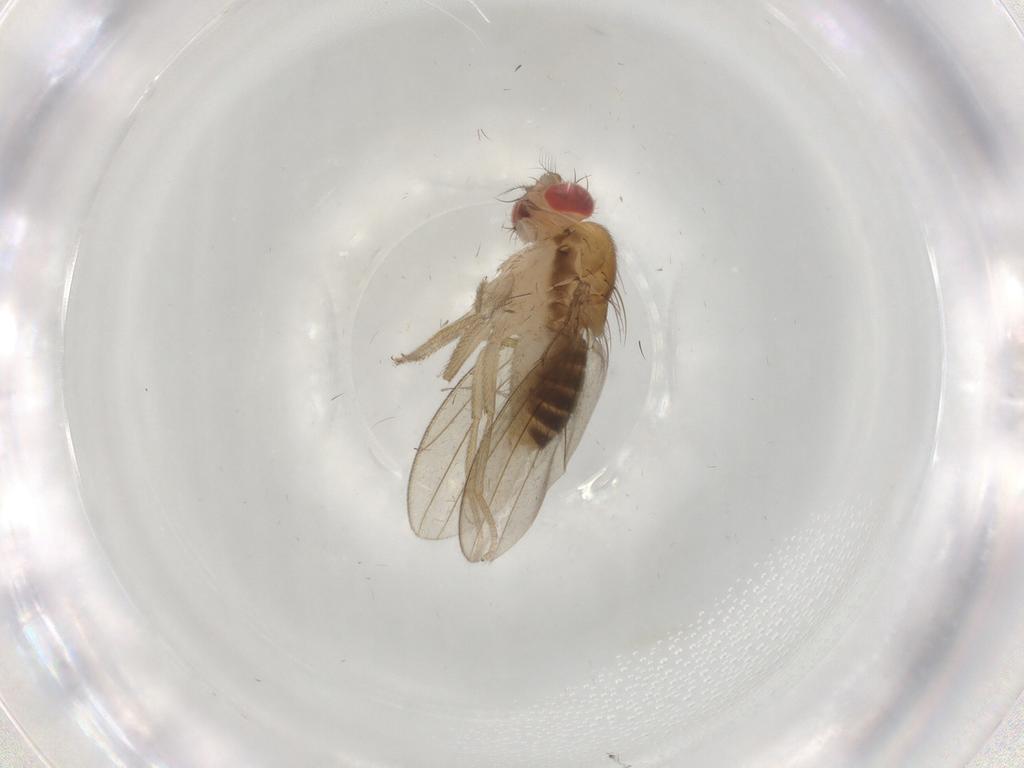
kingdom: Animalia
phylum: Arthropoda
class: Insecta
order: Diptera
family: Drosophilidae
